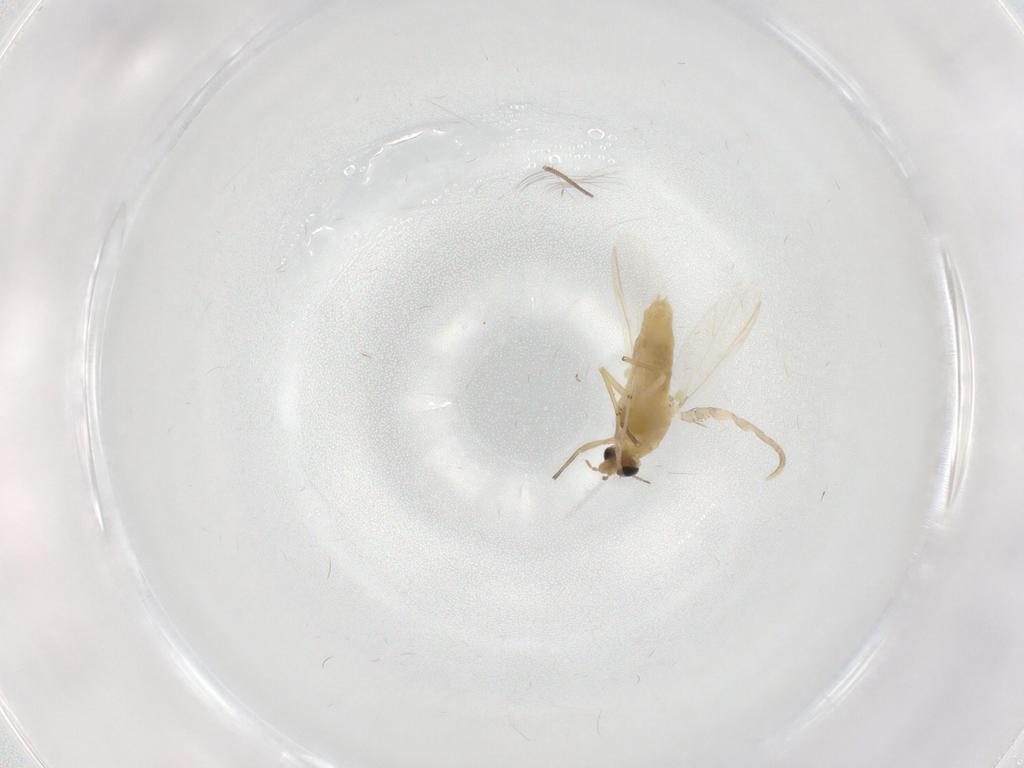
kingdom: Animalia
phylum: Arthropoda
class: Insecta
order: Diptera
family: Chironomidae
